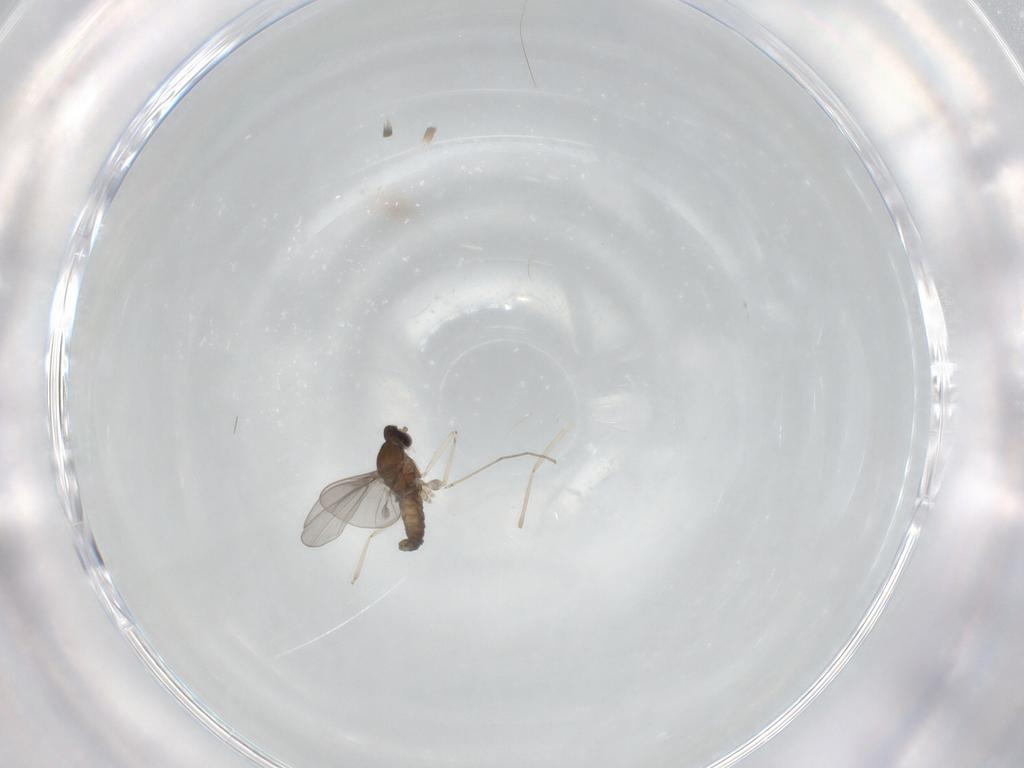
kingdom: Animalia
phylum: Arthropoda
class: Insecta
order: Diptera
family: Cecidomyiidae
